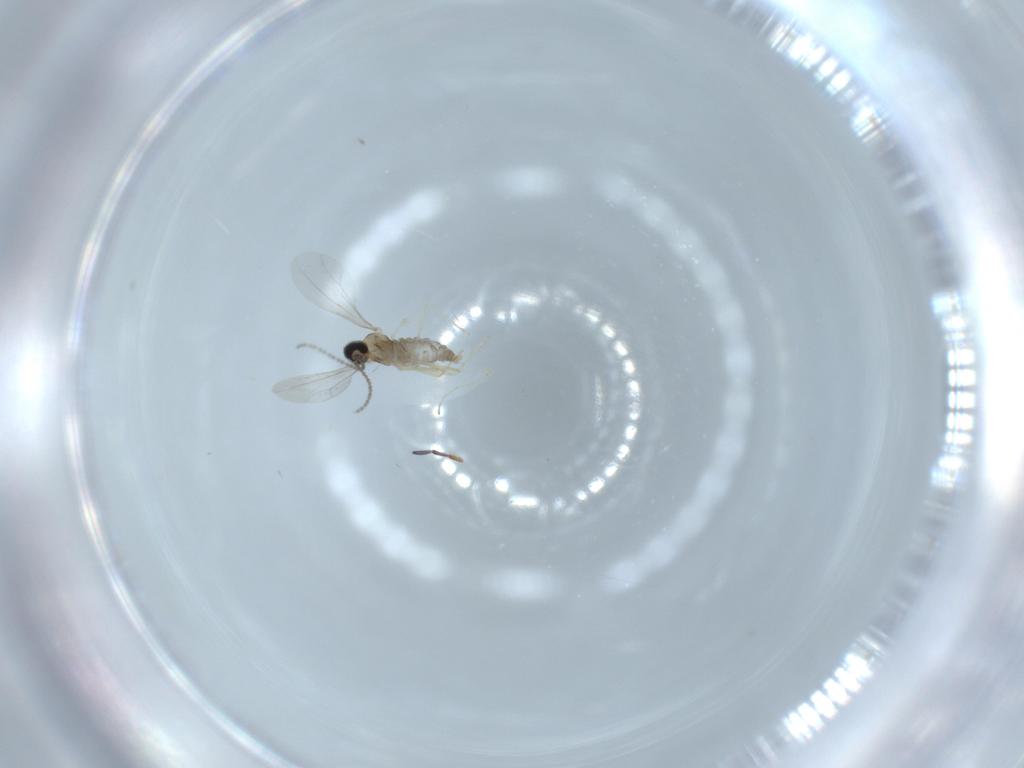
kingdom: Animalia
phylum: Arthropoda
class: Insecta
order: Diptera
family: Cecidomyiidae
